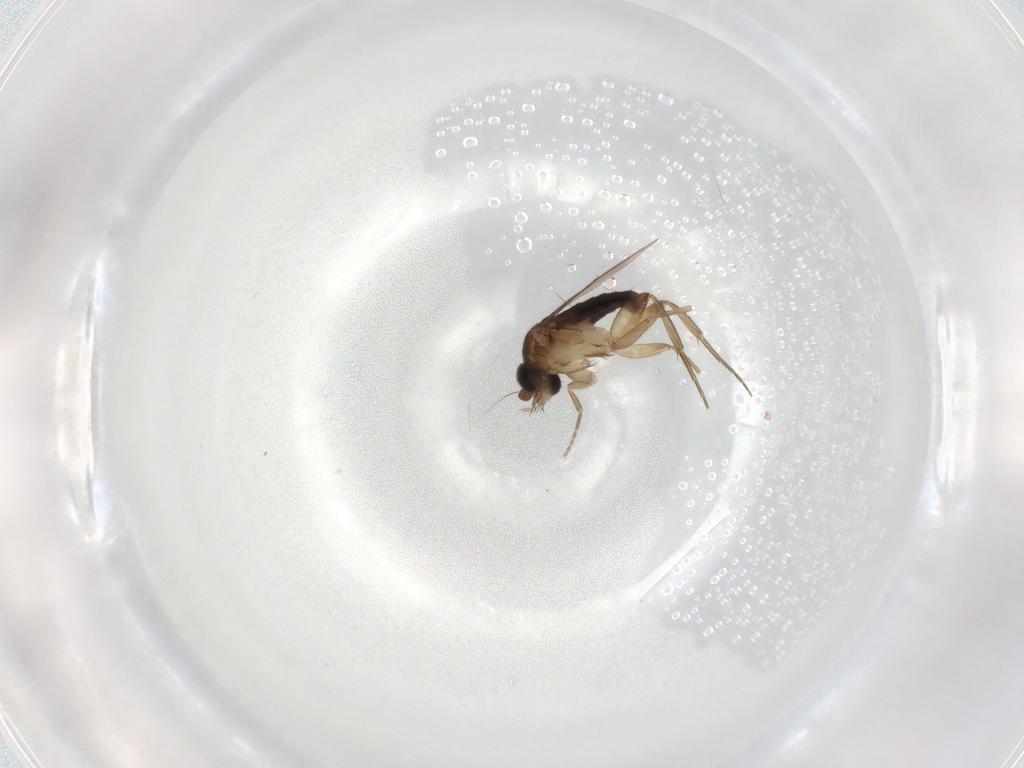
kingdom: Animalia
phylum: Arthropoda
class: Insecta
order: Diptera
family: Phoridae
